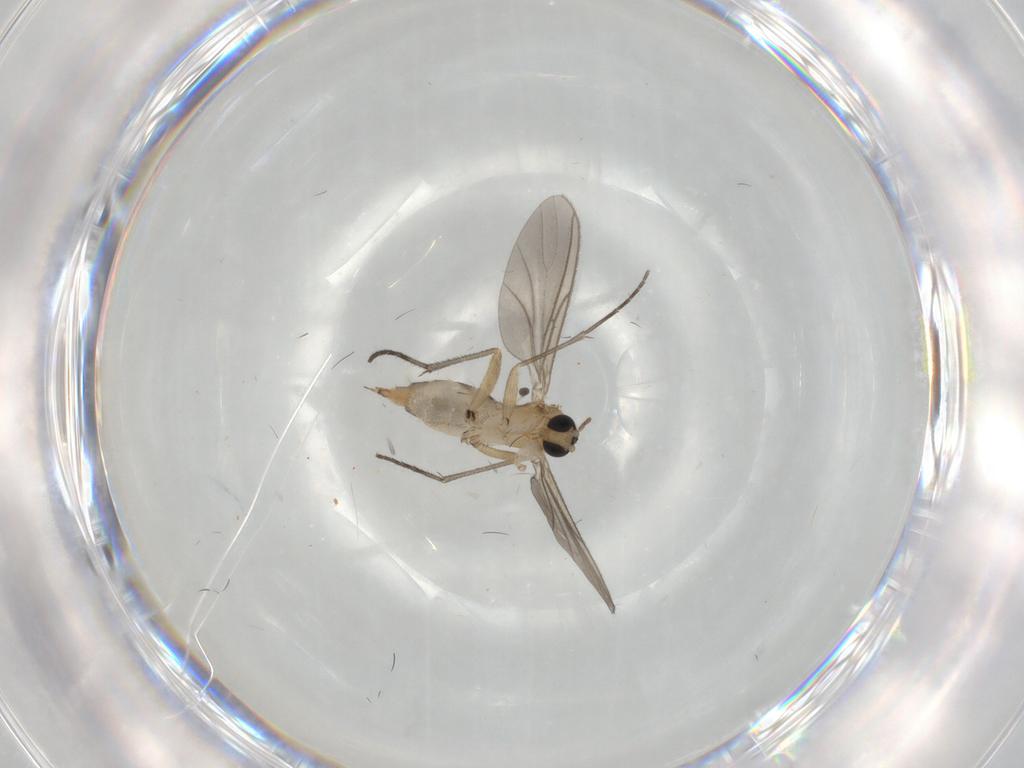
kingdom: Animalia
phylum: Arthropoda
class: Insecta
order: Diptera
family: Sciaridae
